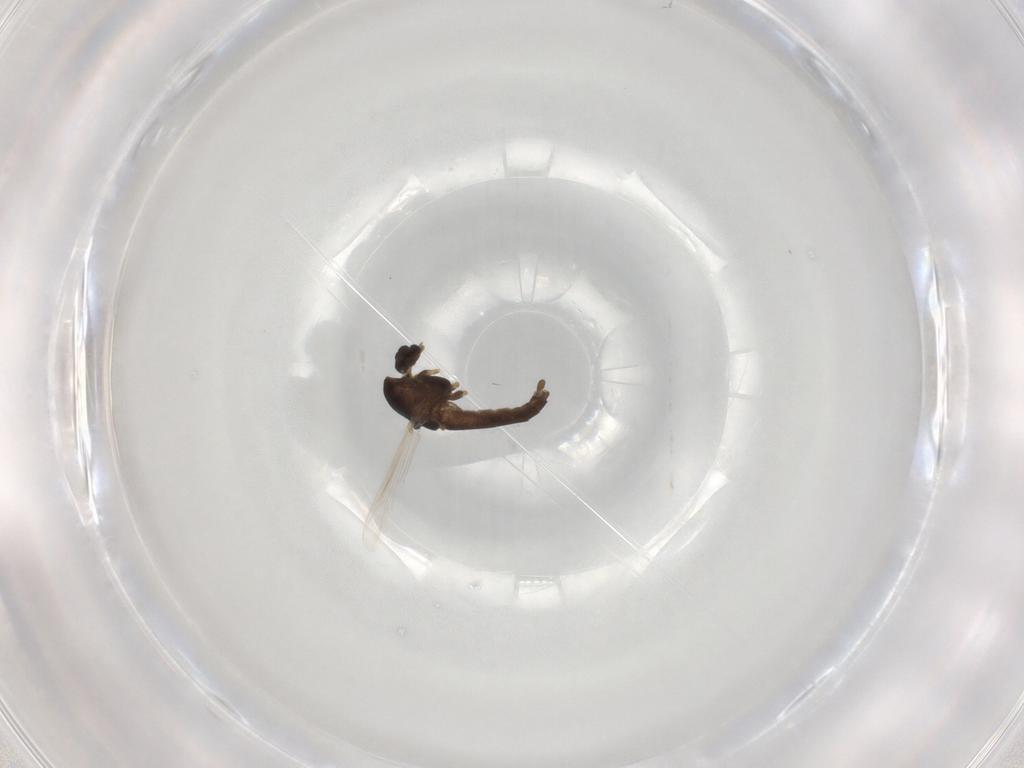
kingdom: Animalia
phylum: Arthropoda
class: Insecta
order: Diptera
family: Chironomidae
